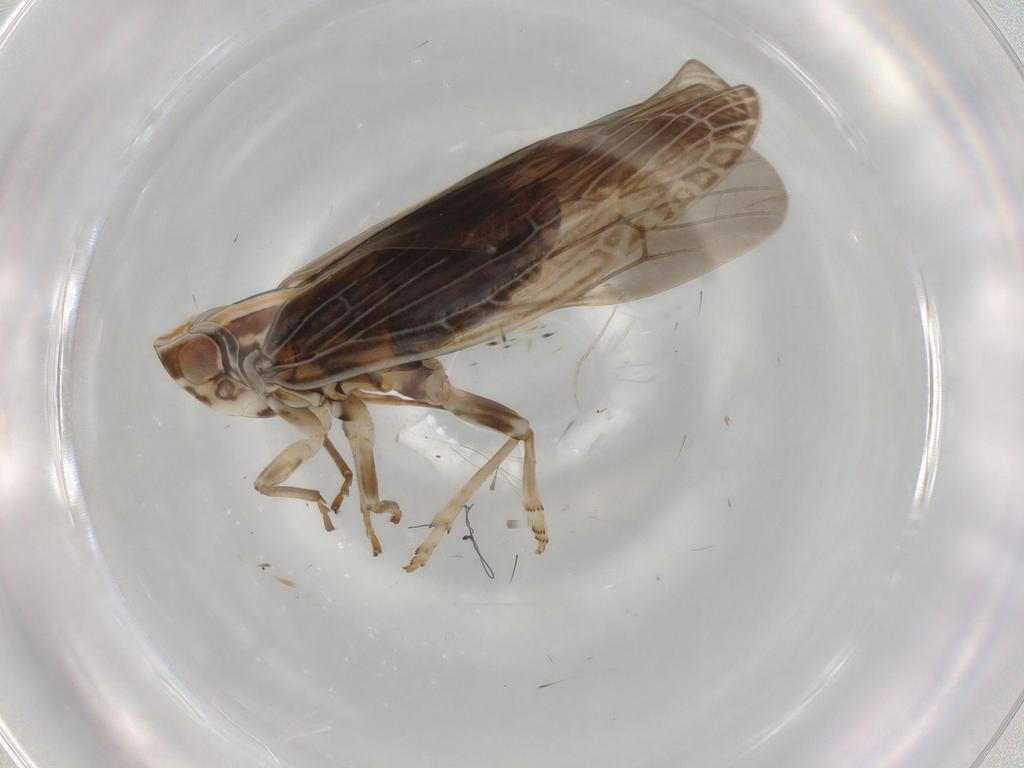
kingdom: Animalia
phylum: Arthropoda
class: Insecta
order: Hemiptera
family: Achilidae
